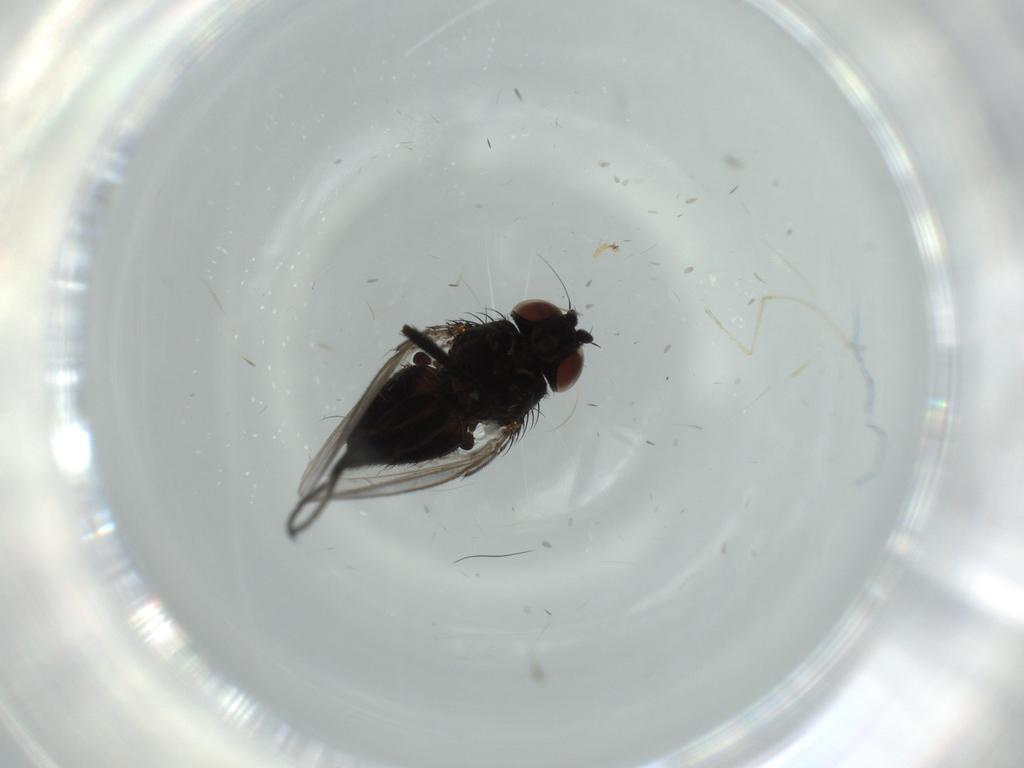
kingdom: Animalia
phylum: Arthropoda
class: Insecta
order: Diptera
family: Milichiidae
